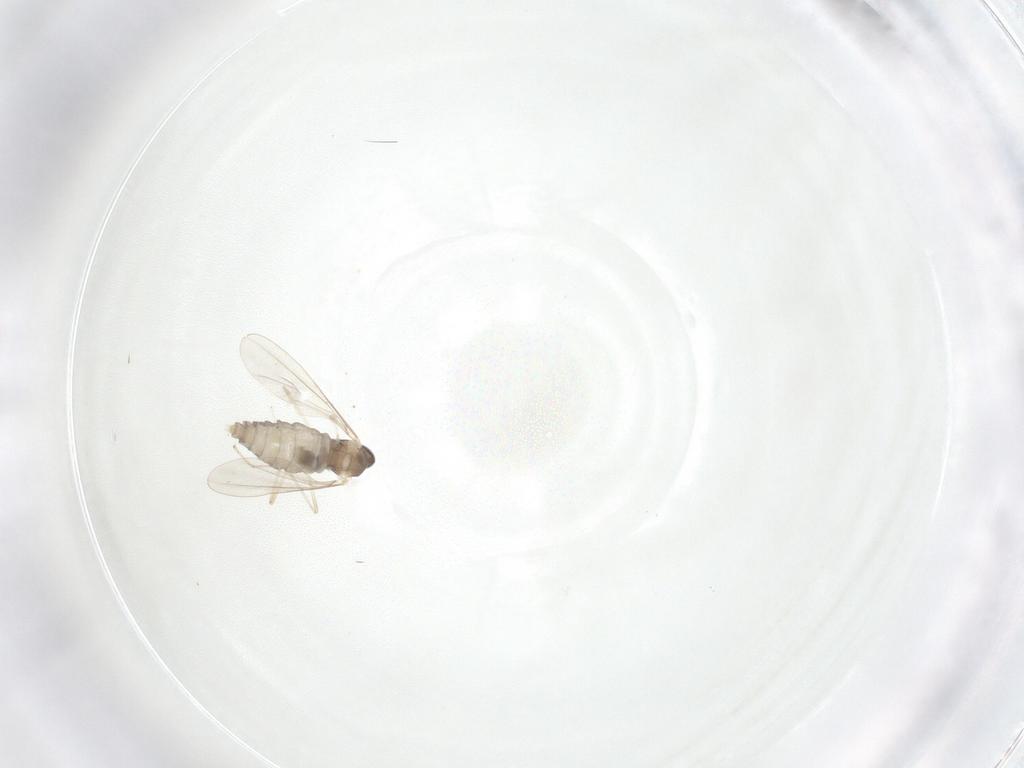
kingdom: Animalia
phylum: Arthropoda
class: Insecta
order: Diptera
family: Cecidomyiidae
